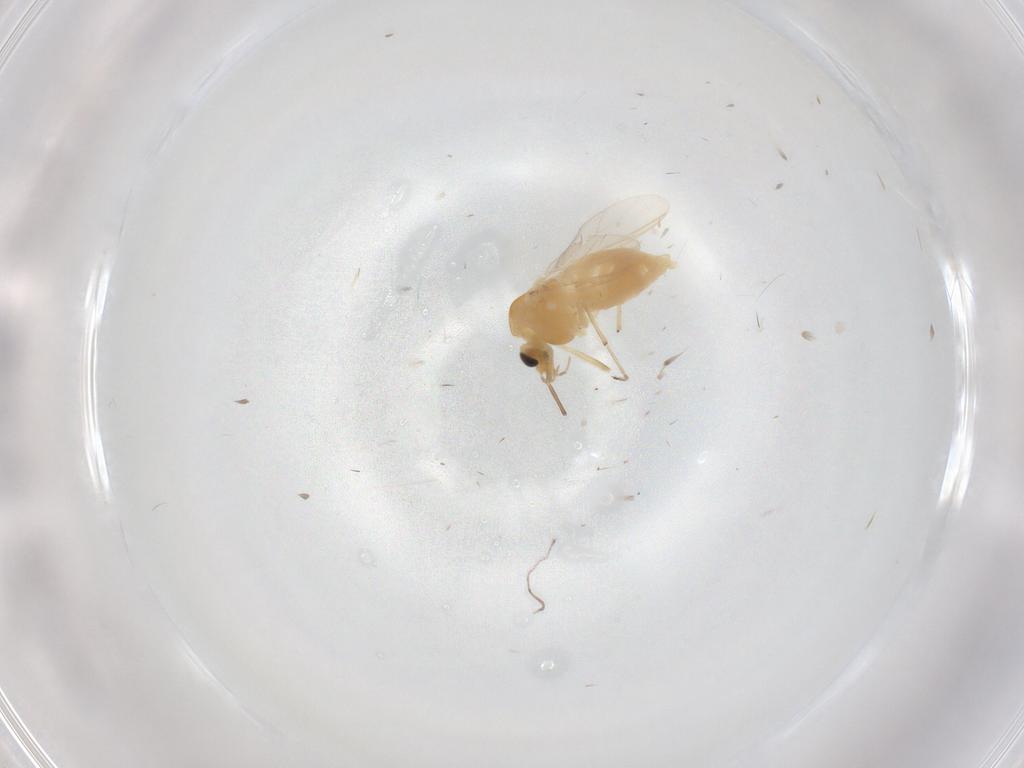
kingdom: Animalia
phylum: Arthropoda
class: Insecta
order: Diptera
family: Chironomidae
